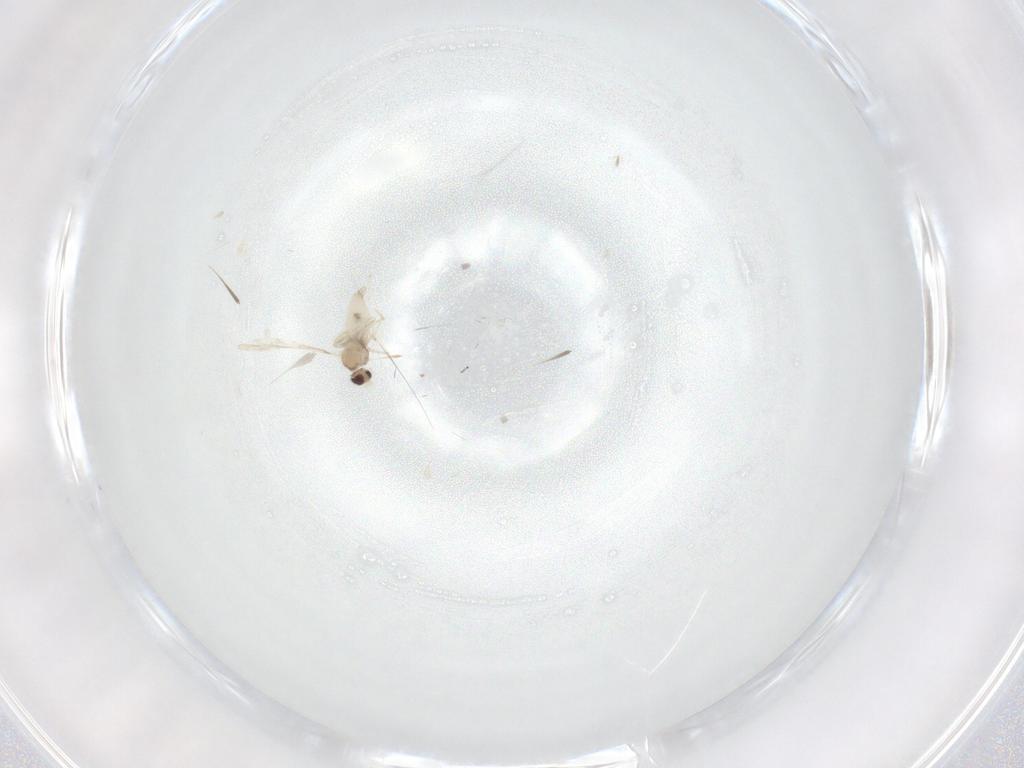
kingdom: Animalia
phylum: Arthropoda
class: Insecta
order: Diptera
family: Cecidomyiidae
